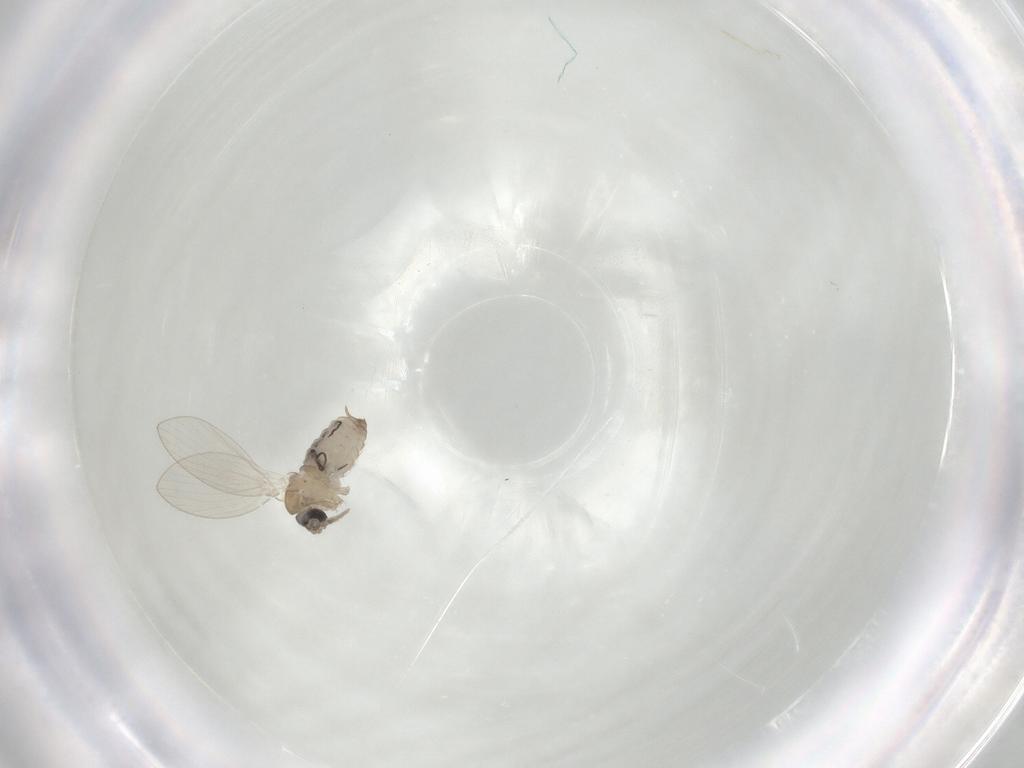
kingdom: Animalia
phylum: Arthropoda
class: Insecta
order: Diptera
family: Psychodidae
